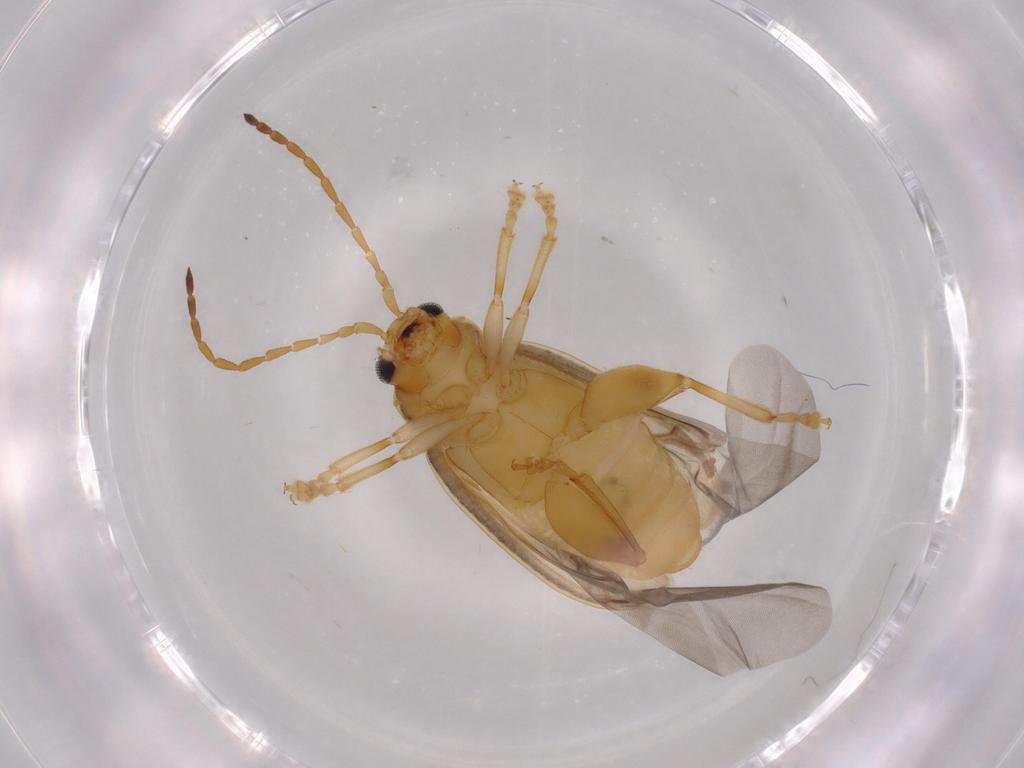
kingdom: Animalia
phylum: Arthropoda
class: Insecta
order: Coleoptera
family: Chrysomelidae
